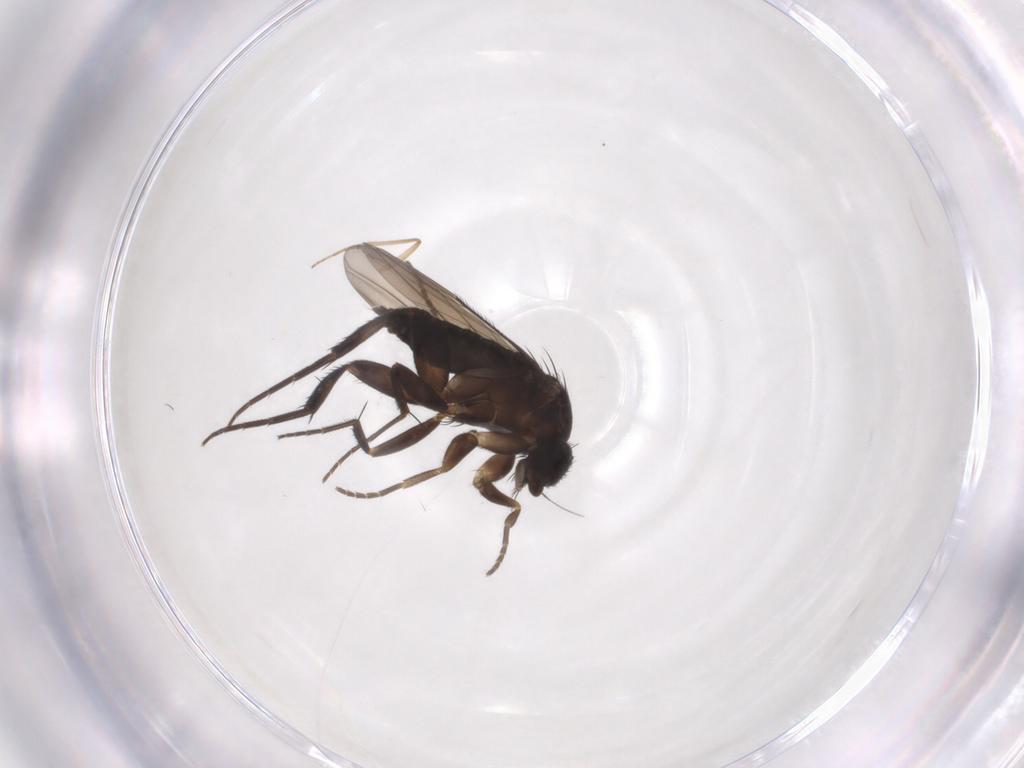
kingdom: Animalia
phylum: Arthropoda
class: Insecta
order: Diptera
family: Phoridae
